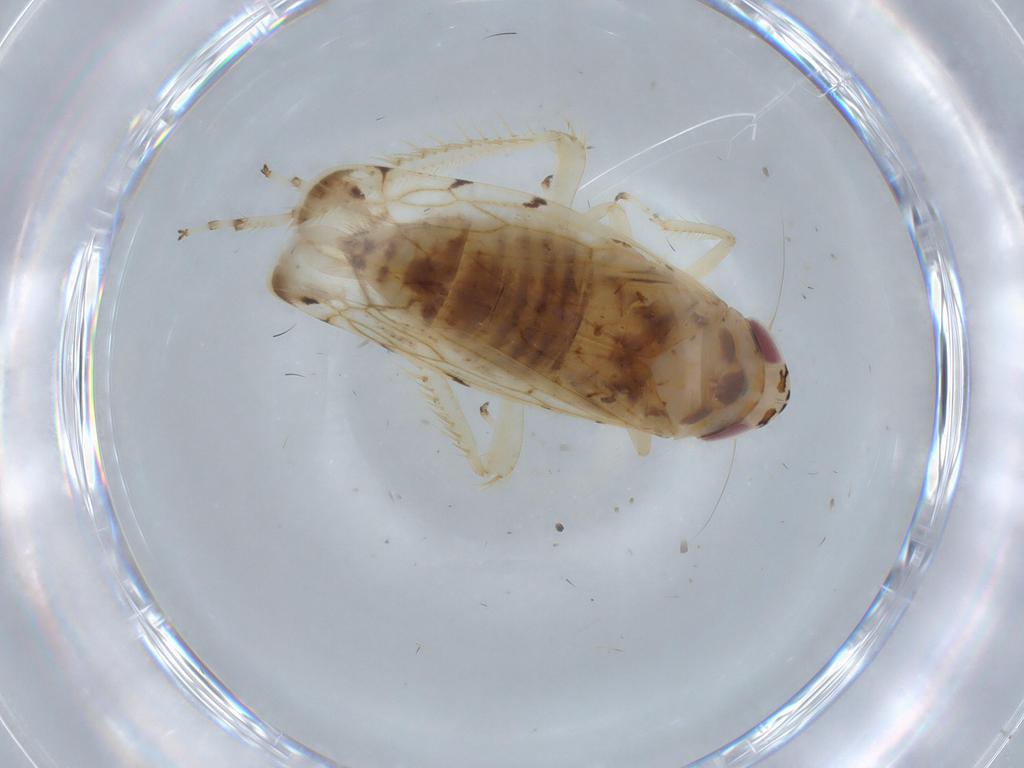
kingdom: Animalia
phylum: Arthropoda
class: Insecta
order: Hemiptera
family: Cicadellidae
